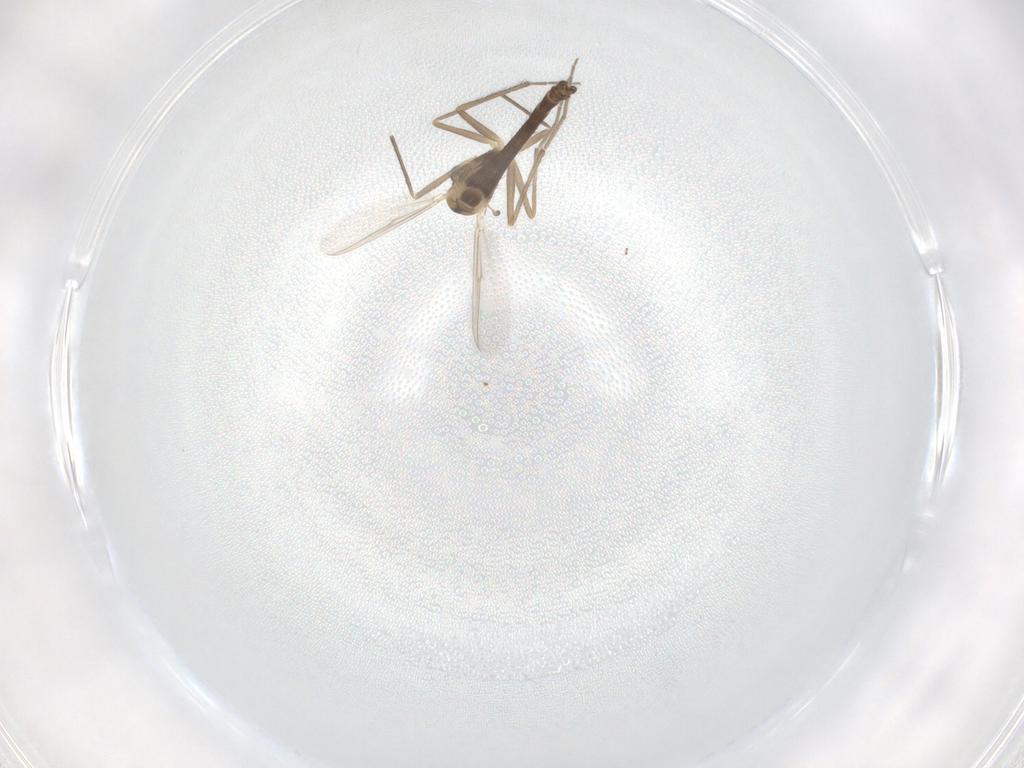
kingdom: Animalia
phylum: Arthropoda
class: Insecta
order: Diptera
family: Chironomidae
